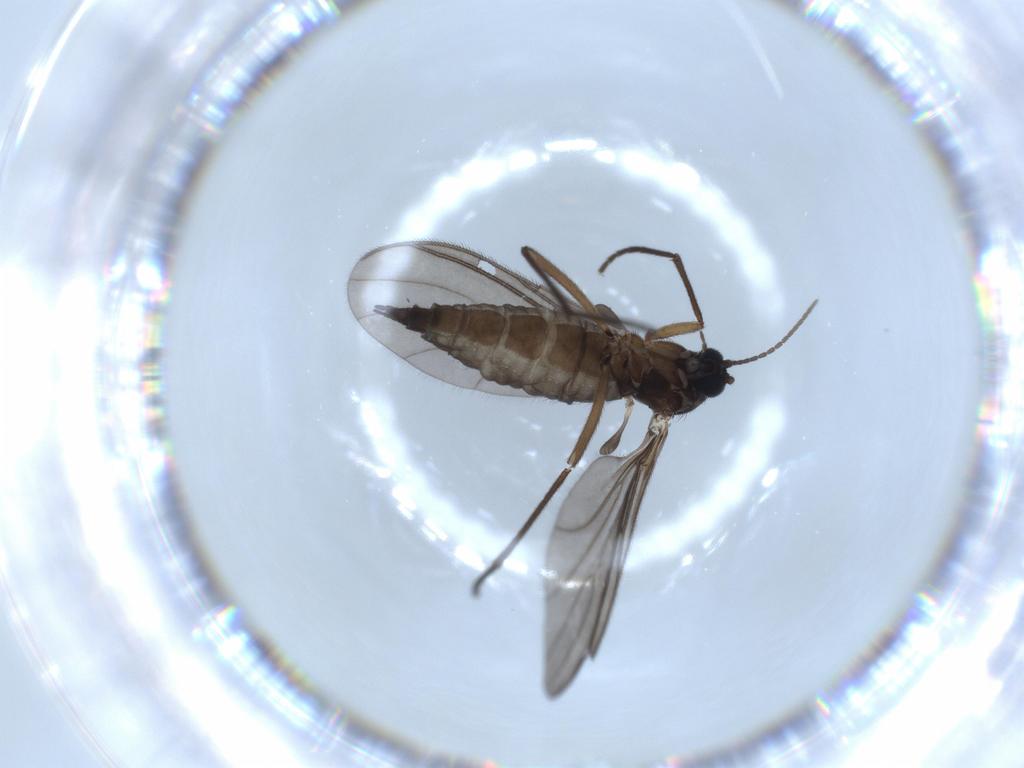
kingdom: Animalia
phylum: Arthropoda
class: Insecta
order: Diptera
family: Sciaridae
